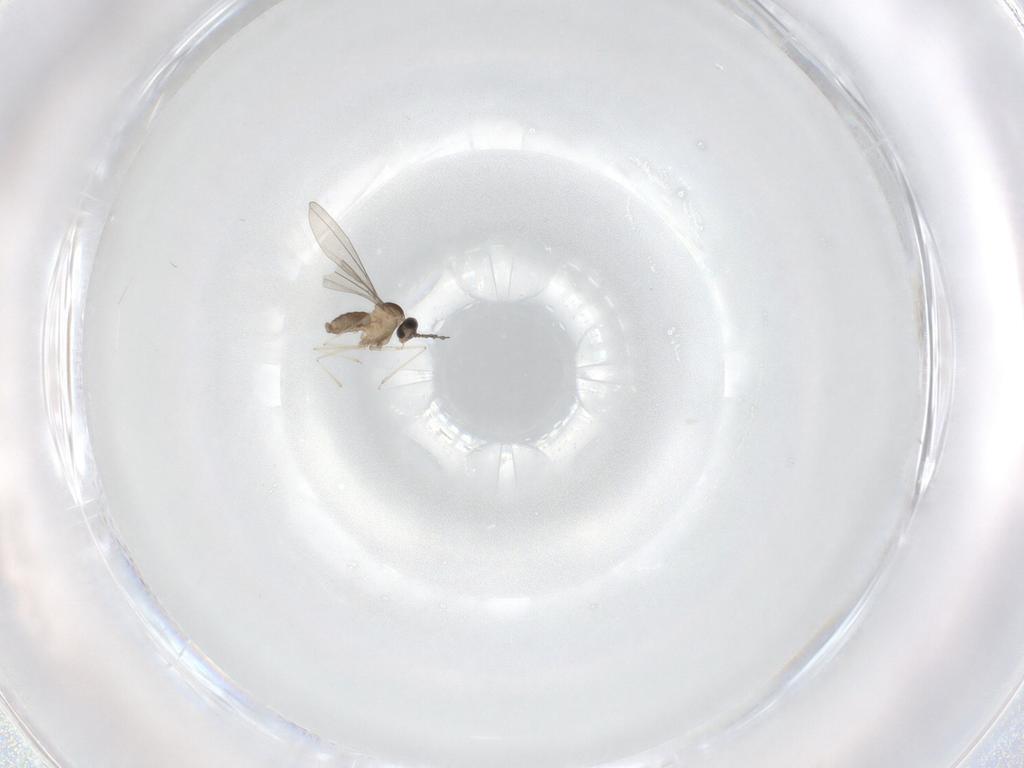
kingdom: Animalia
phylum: Arthropoda
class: Insecta
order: Diptera
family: Cecidomyiidae
